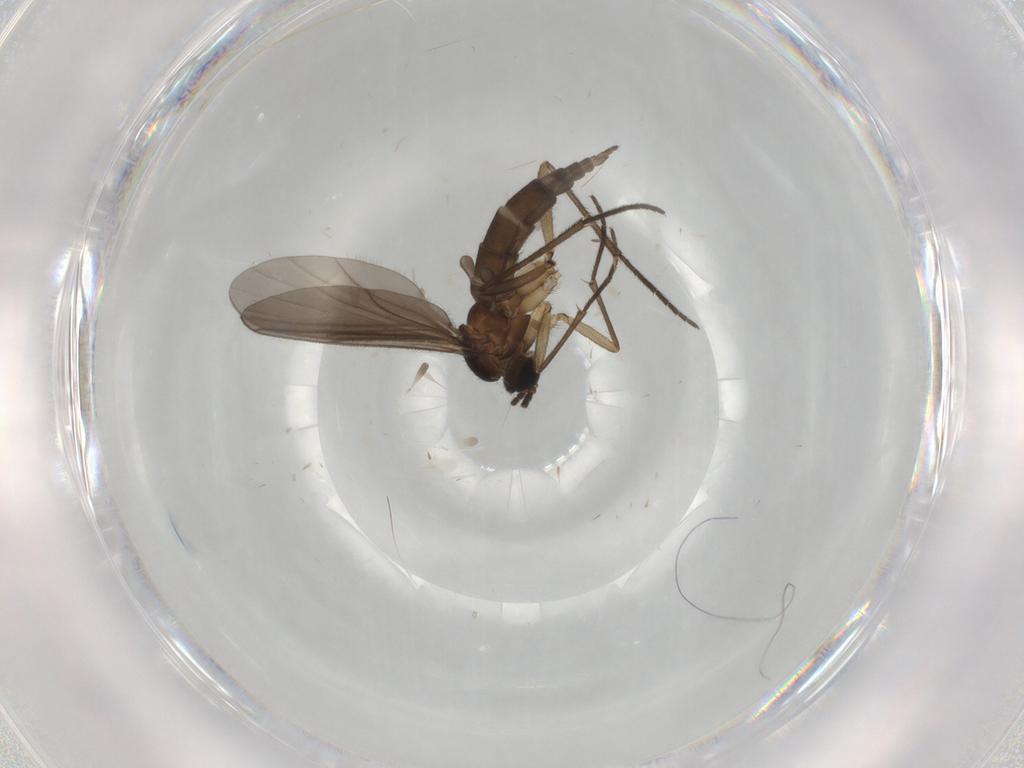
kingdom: Animalia
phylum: Arthropoda
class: Insecta
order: Diptera
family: Sciaridae
